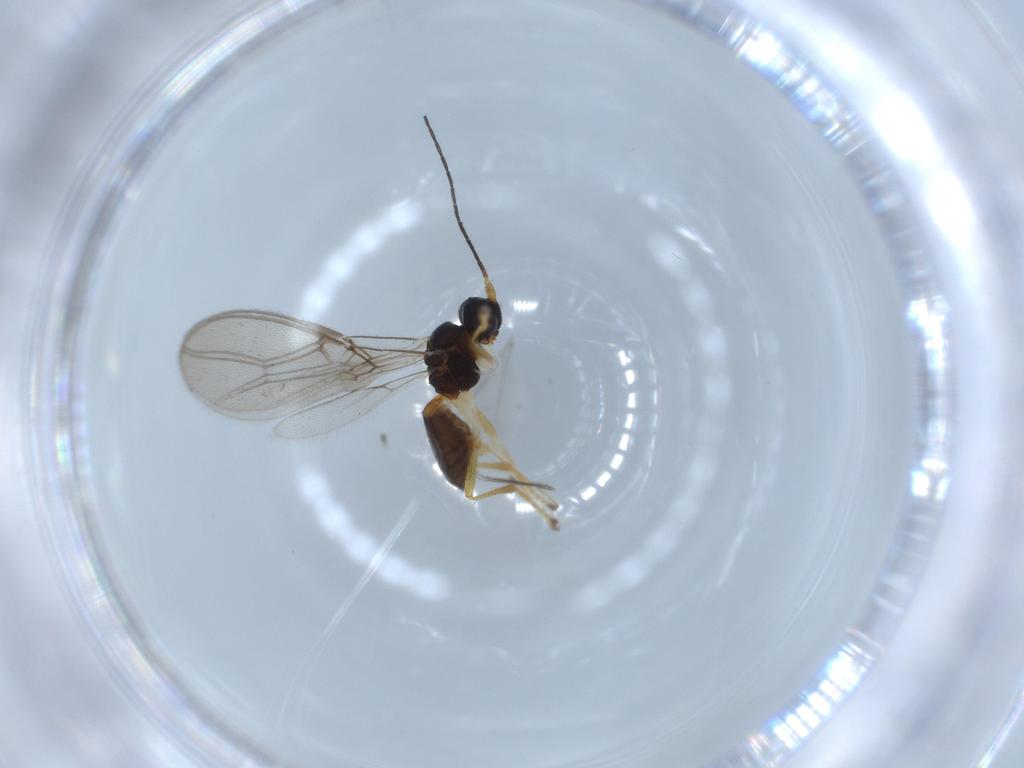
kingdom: Animalia
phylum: Arthropoda
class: Insecta
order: Hymenoptera
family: Braconidae
